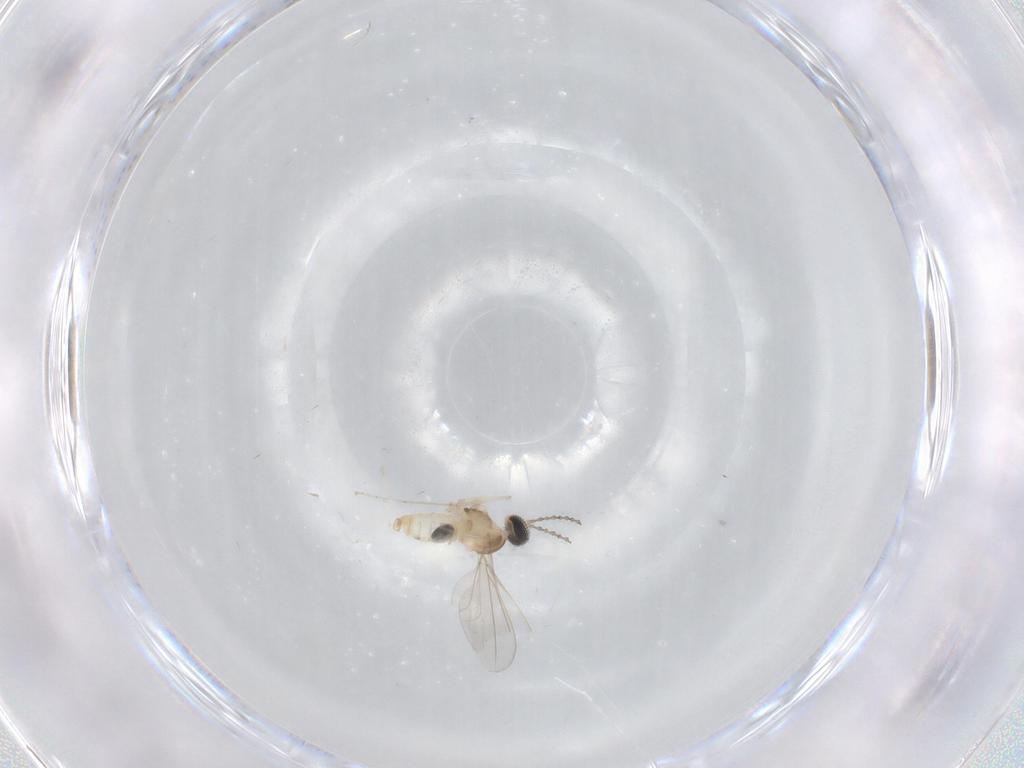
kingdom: Animalia
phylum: Arthropoda
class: Insecta
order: Diptera
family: Cecidomyiidae
